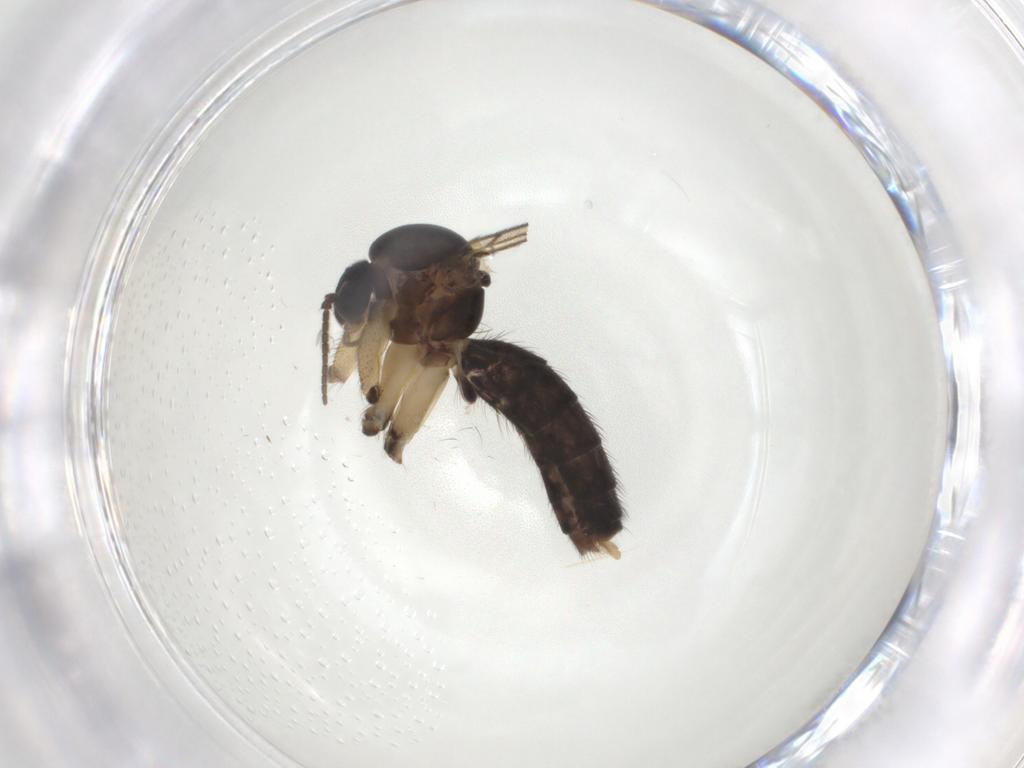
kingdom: Animalia
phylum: Arthropoda
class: Insecta
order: Diptera
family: Mycetophilidae
